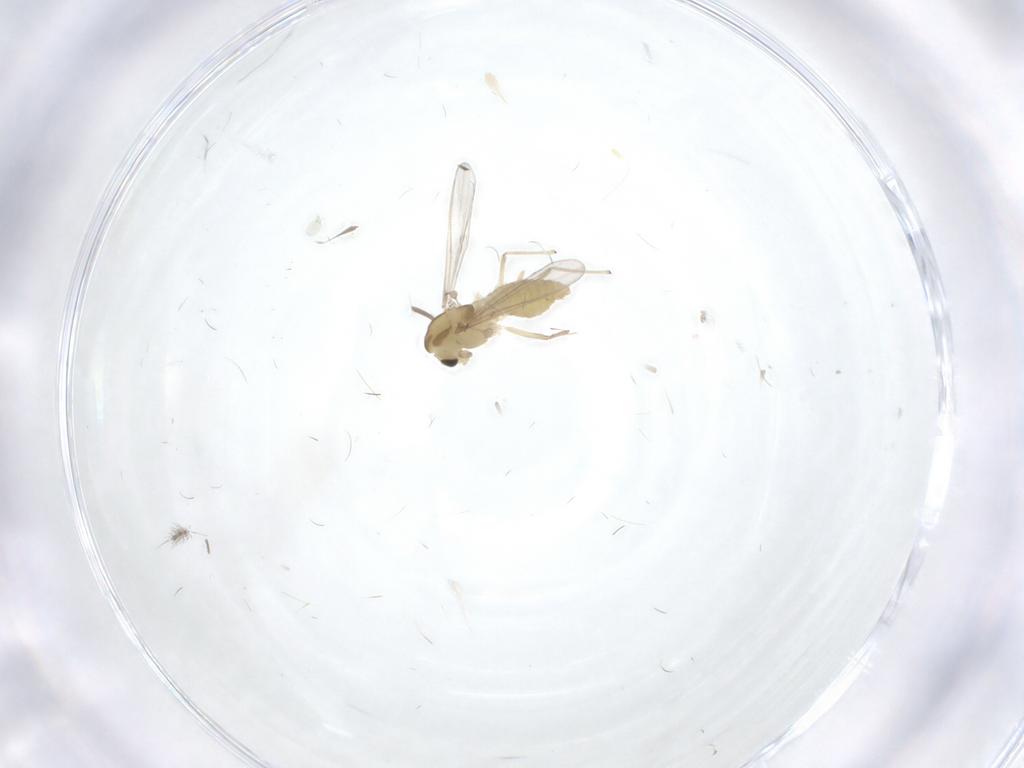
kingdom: Animalia
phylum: Arthropoda
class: Insecta
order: Diptera
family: Chironomidae
